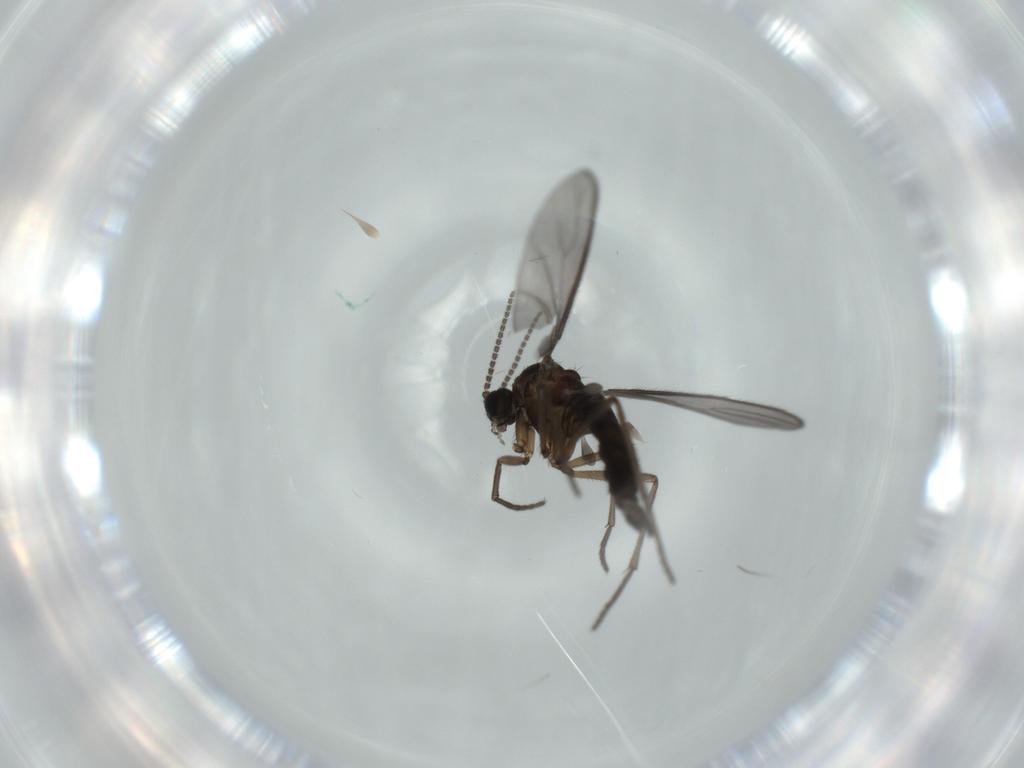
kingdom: Animalia
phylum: Arthropoda
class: Insecta
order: Diptera
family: Sciaridae
